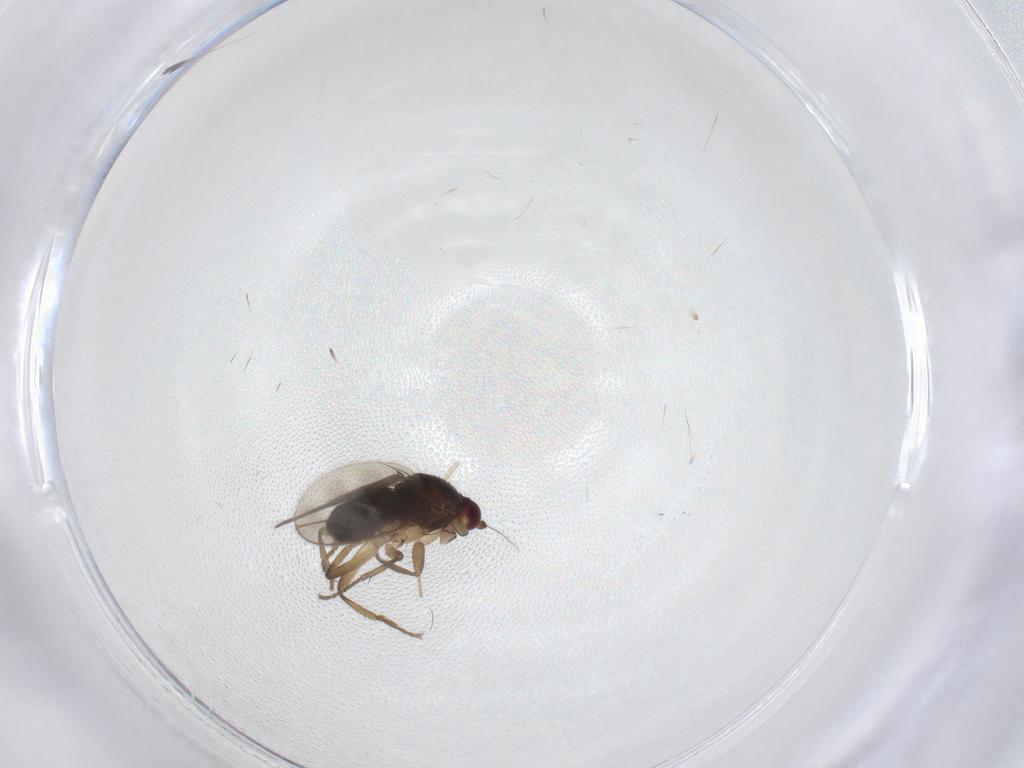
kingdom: Animalia
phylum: Arthropoda
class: Insecta
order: Diptera
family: Sphaeroceridae
